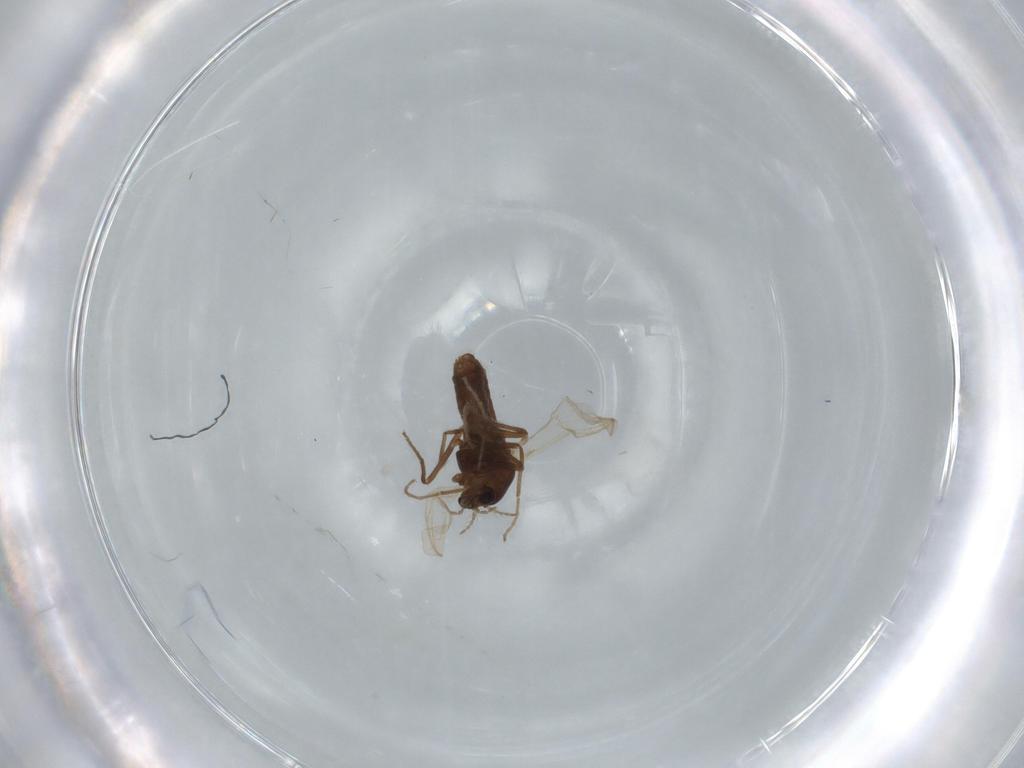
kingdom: Animalia
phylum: Arthropoda
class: Insecta
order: Diptera
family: Chironomidae
